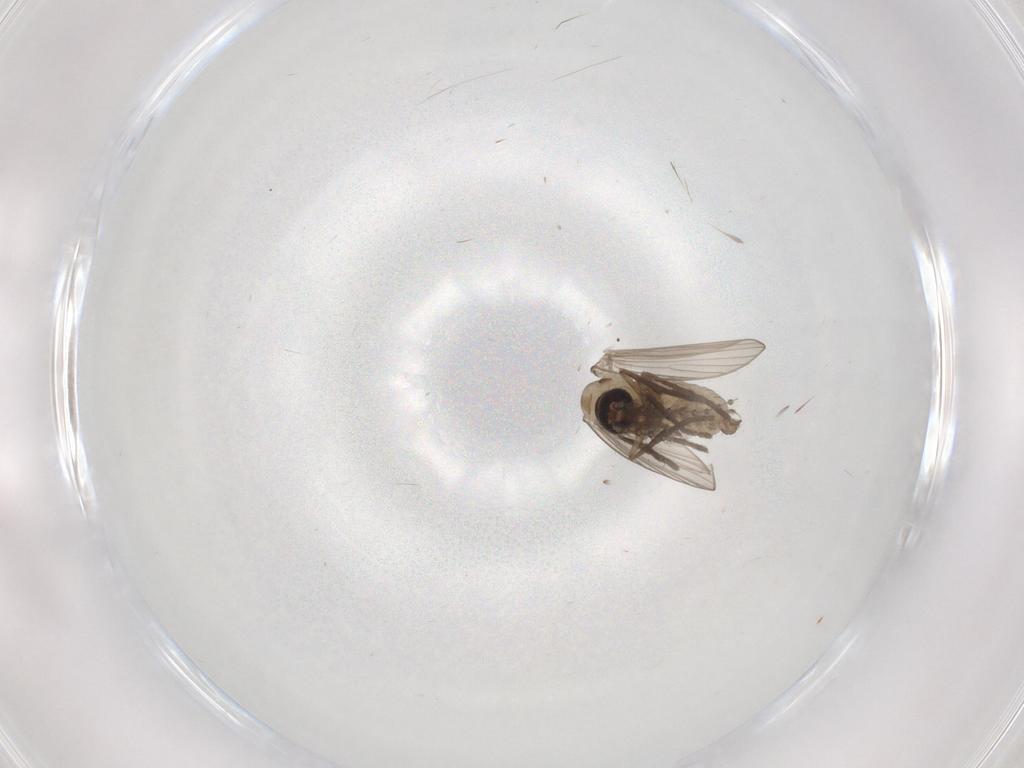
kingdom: Animalia
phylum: Arthropoda
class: Insecta
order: Diptera
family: Psychodidae
